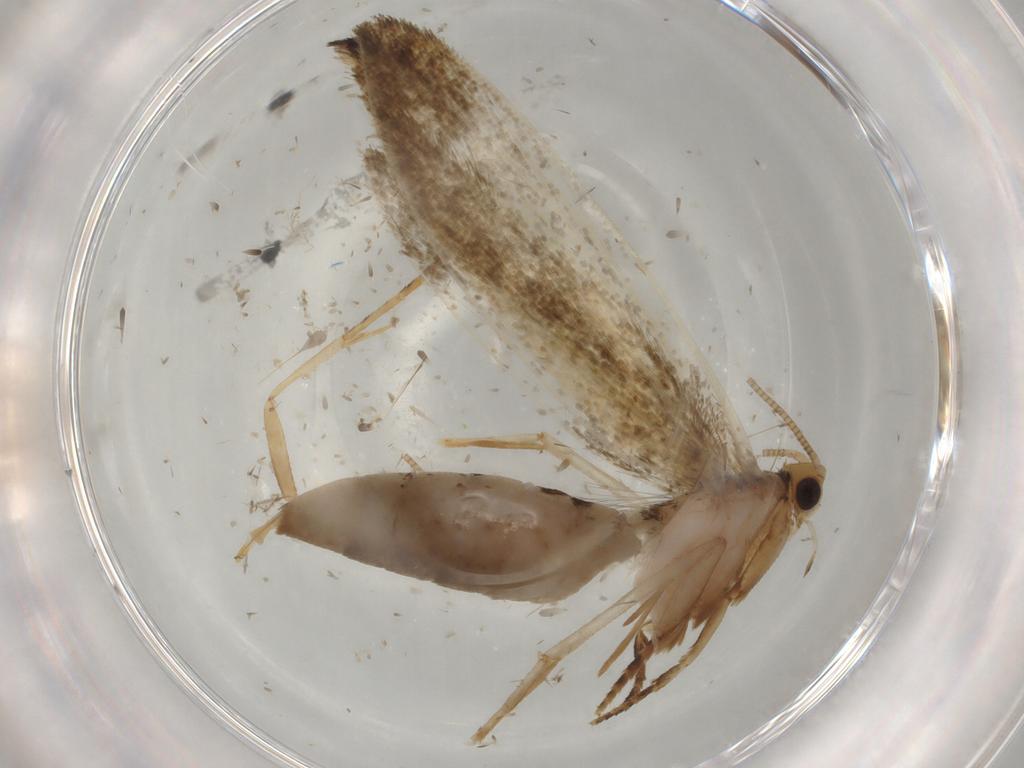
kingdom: Animalia
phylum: Arthropoda
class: Insecta
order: Lepidoptera
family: Tineidae
